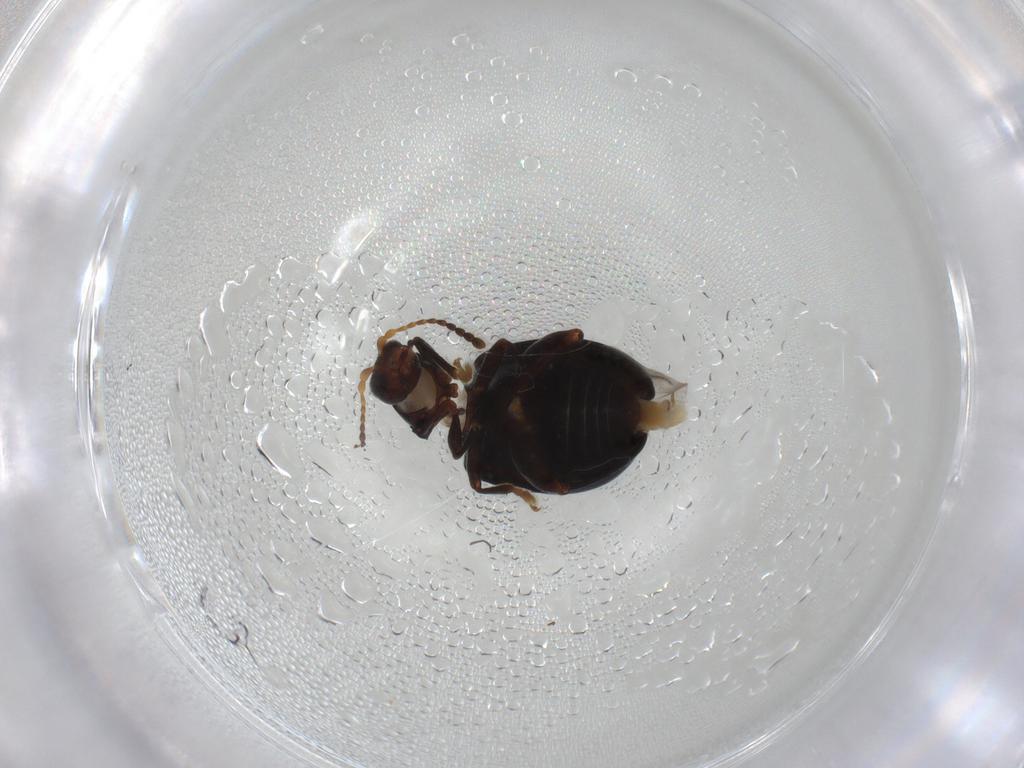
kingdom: Animalia
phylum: Arthropoda
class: Insecta
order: Coleoptera
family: Chrysomelidae
